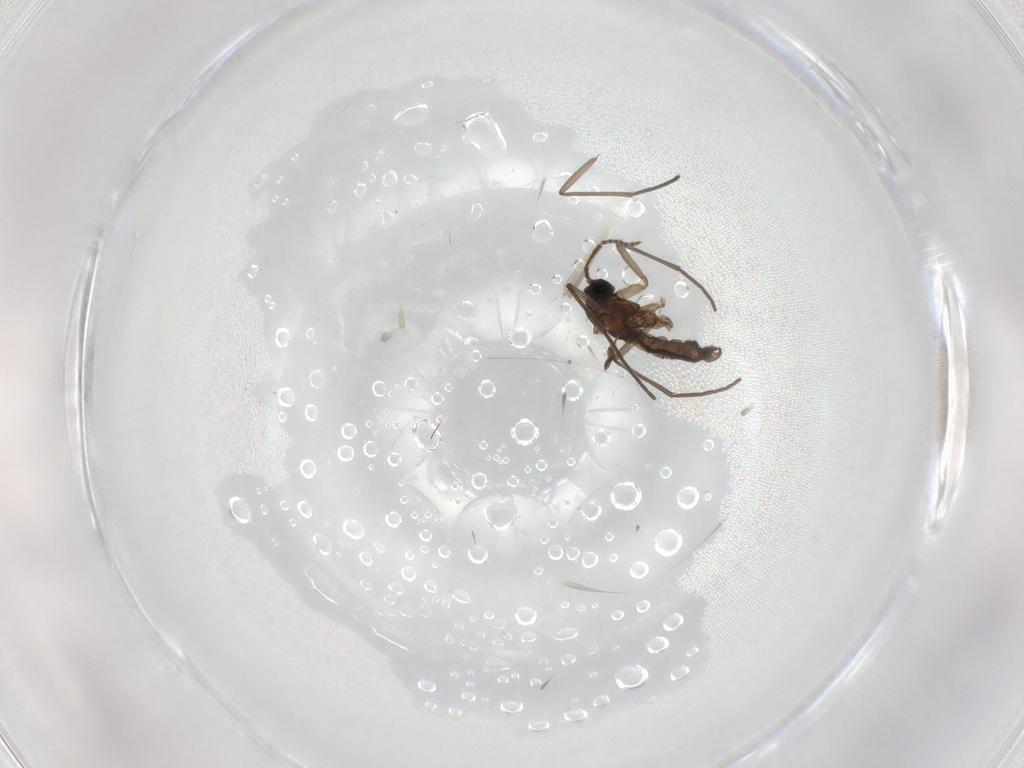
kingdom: Animalia
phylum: Arthropoda
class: Insecta
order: Diptera
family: Sciaridae
